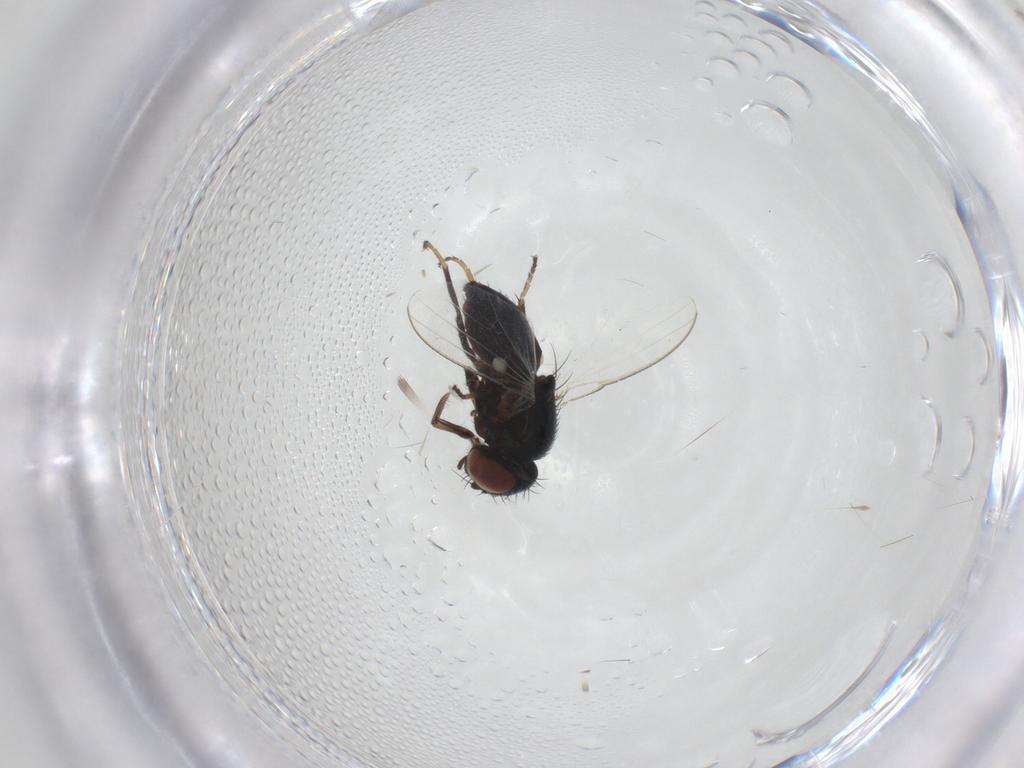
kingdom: Animalia
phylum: Arthropoda
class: Insecta
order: Diptera
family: Milichiidae
